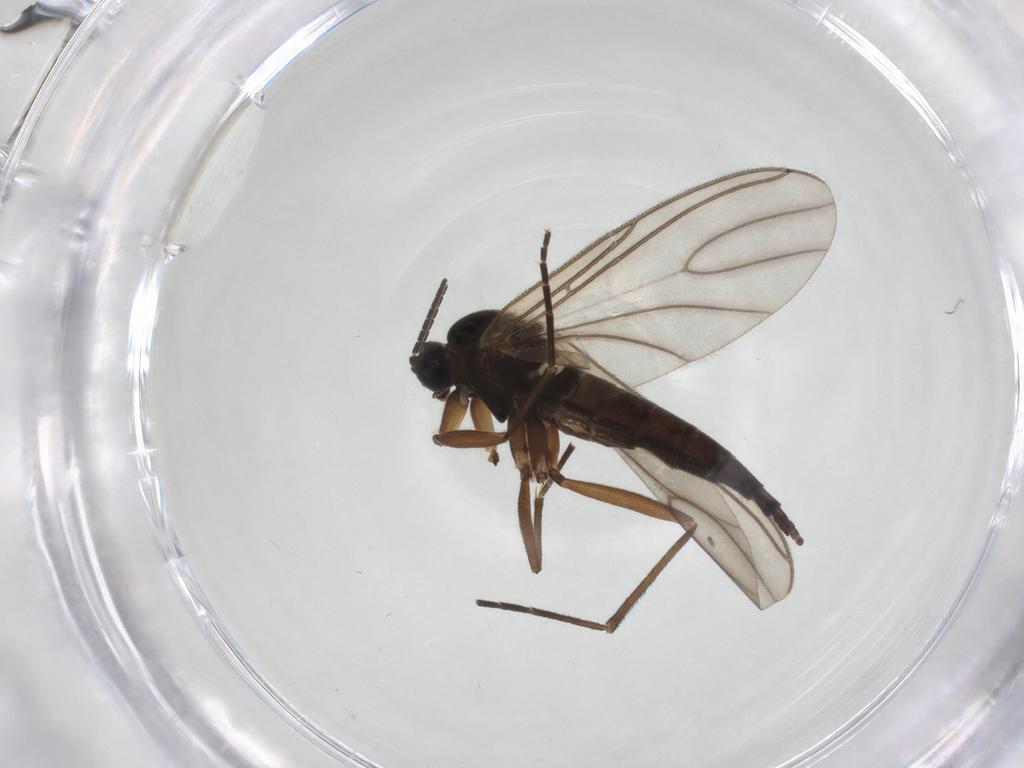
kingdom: Animalia
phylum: Arthropoda
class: Insecta
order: Diptera
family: Sciaridae
